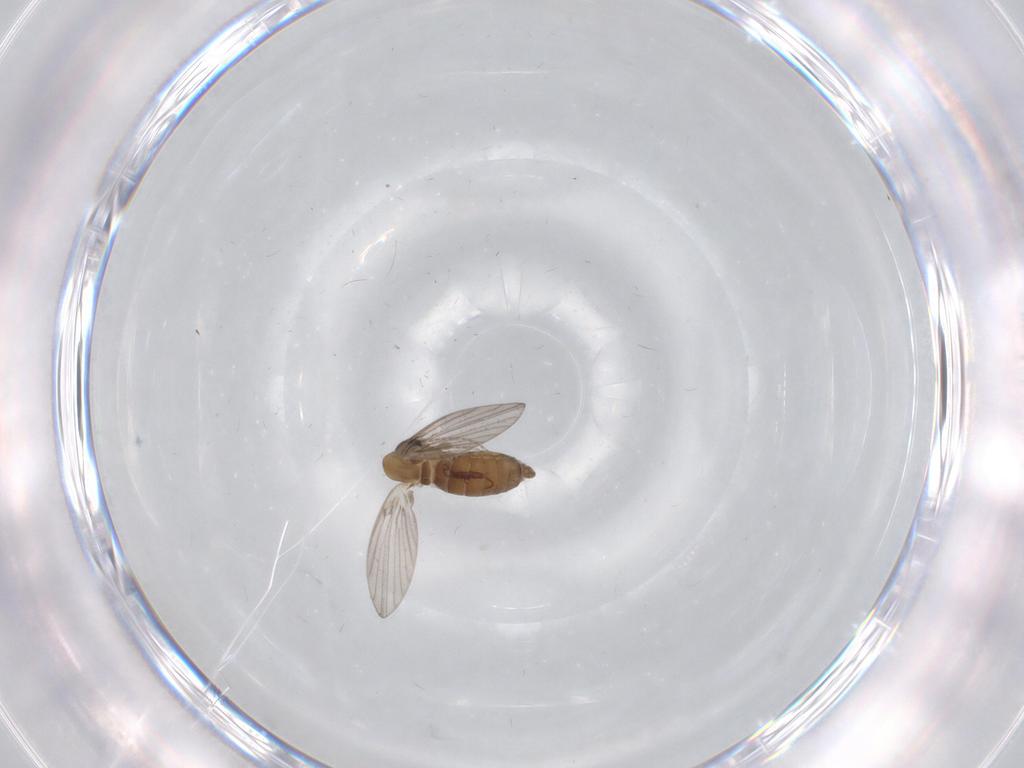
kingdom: Animalia
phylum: Arthropoda
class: Insecta
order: Diptera
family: Psychodidae
